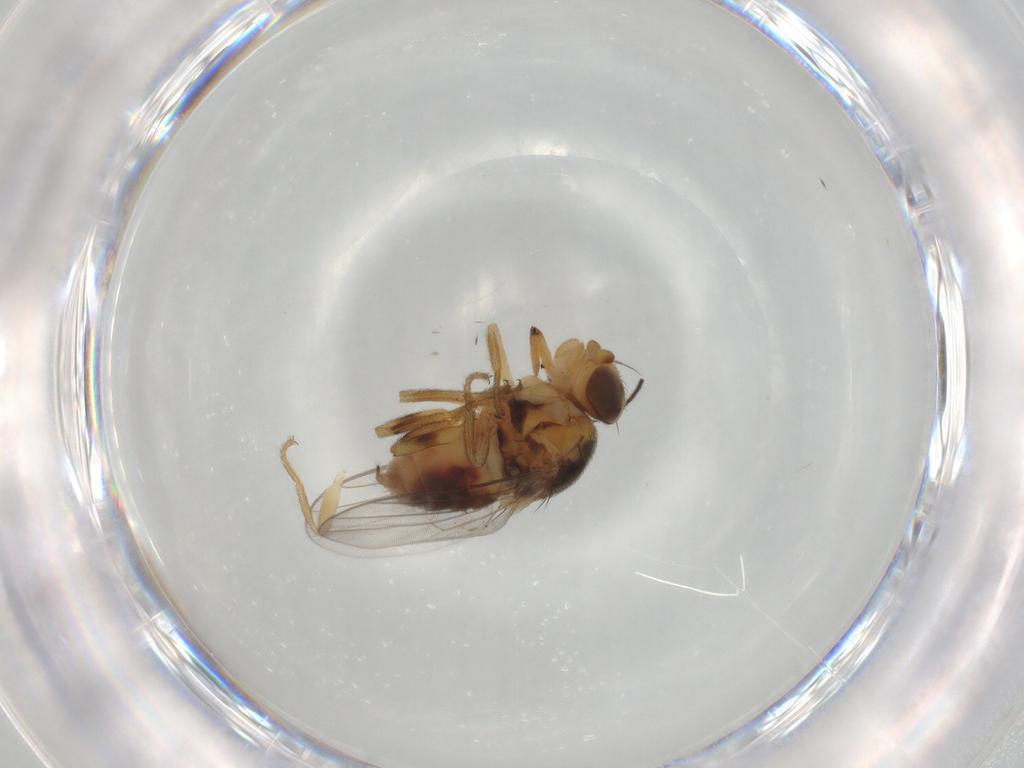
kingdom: Animalia
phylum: Arthropoda
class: Insecta
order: Diptera
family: Chloropidae
